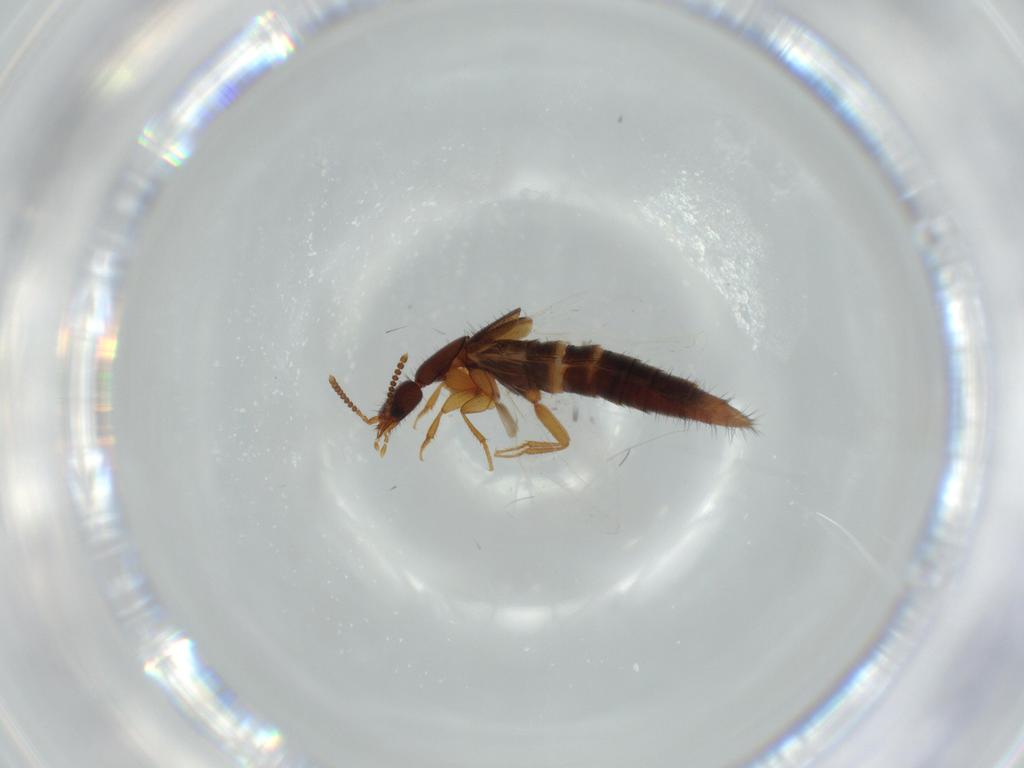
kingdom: Animalia
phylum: Arthropoda
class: Insecta
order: Coleoptera
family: Staphylinidae
